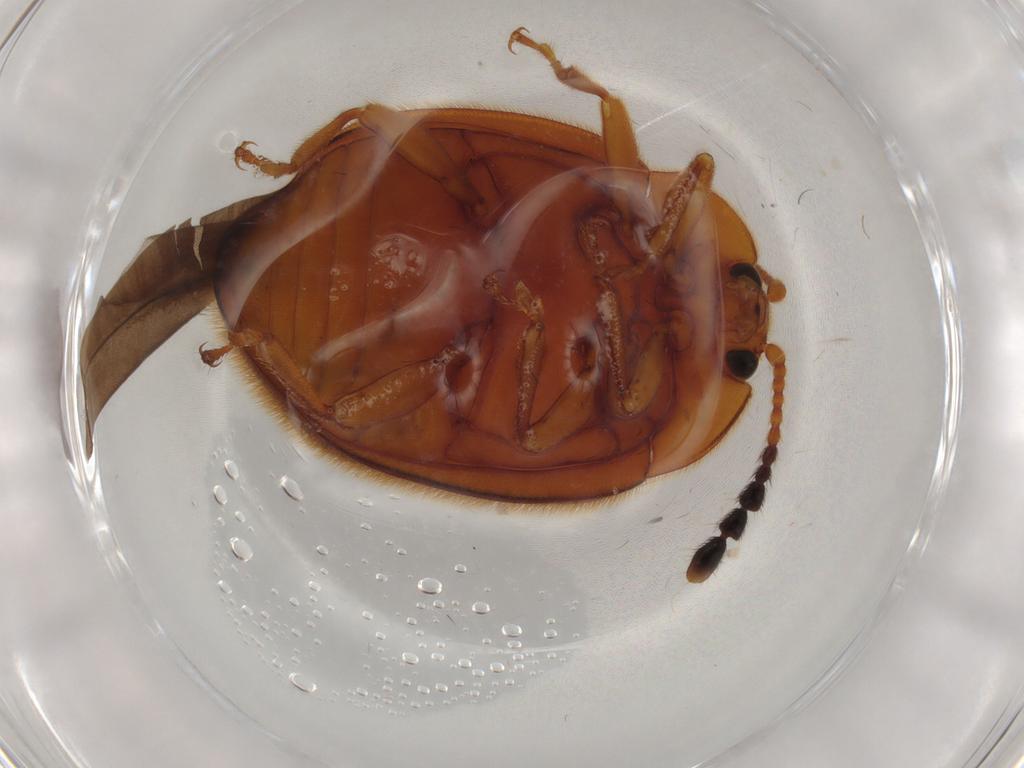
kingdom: Animalia
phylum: Arthropoda
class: Insecta
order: Coleoptera
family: Endomychidae
